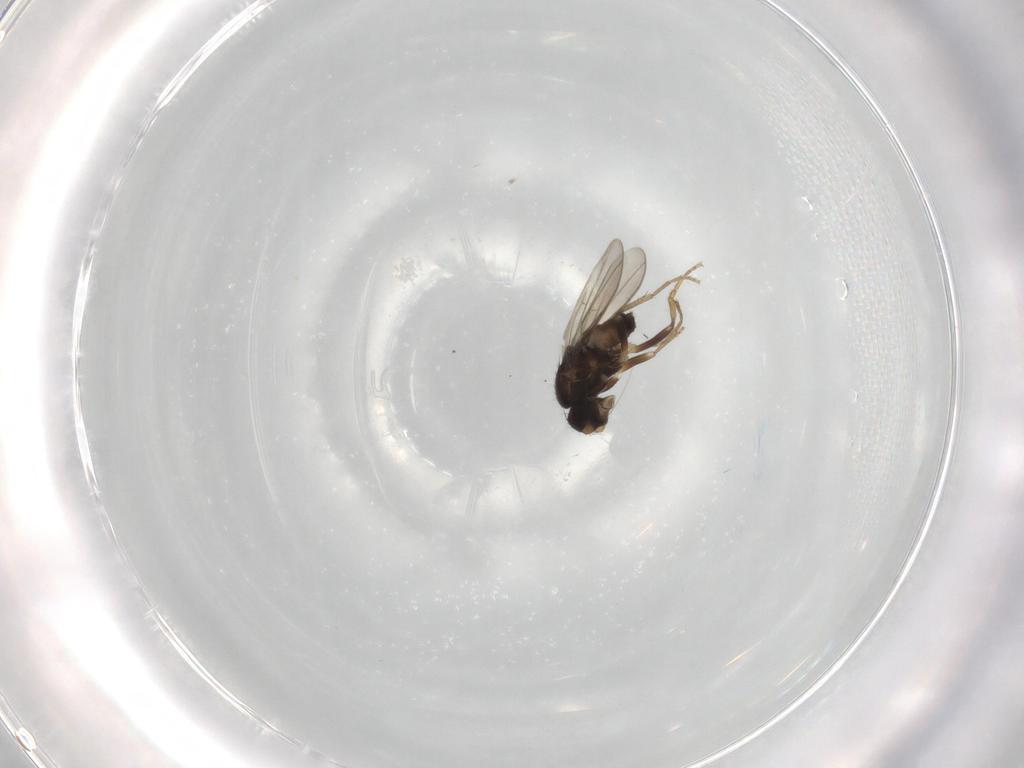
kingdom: Animalia
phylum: Arthropoda
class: Insecta
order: Diptera
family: Sphaeroceridae
